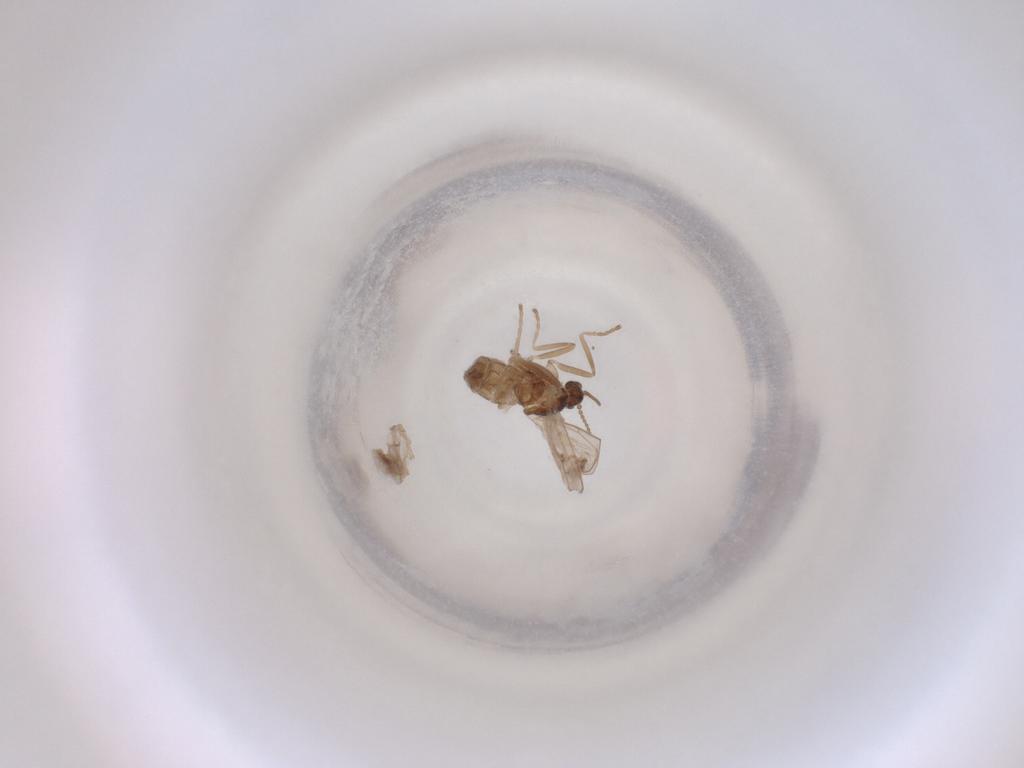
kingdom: Animalia
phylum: Arthropoda
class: Insecta
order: Diptera
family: Cecidomyiidae
